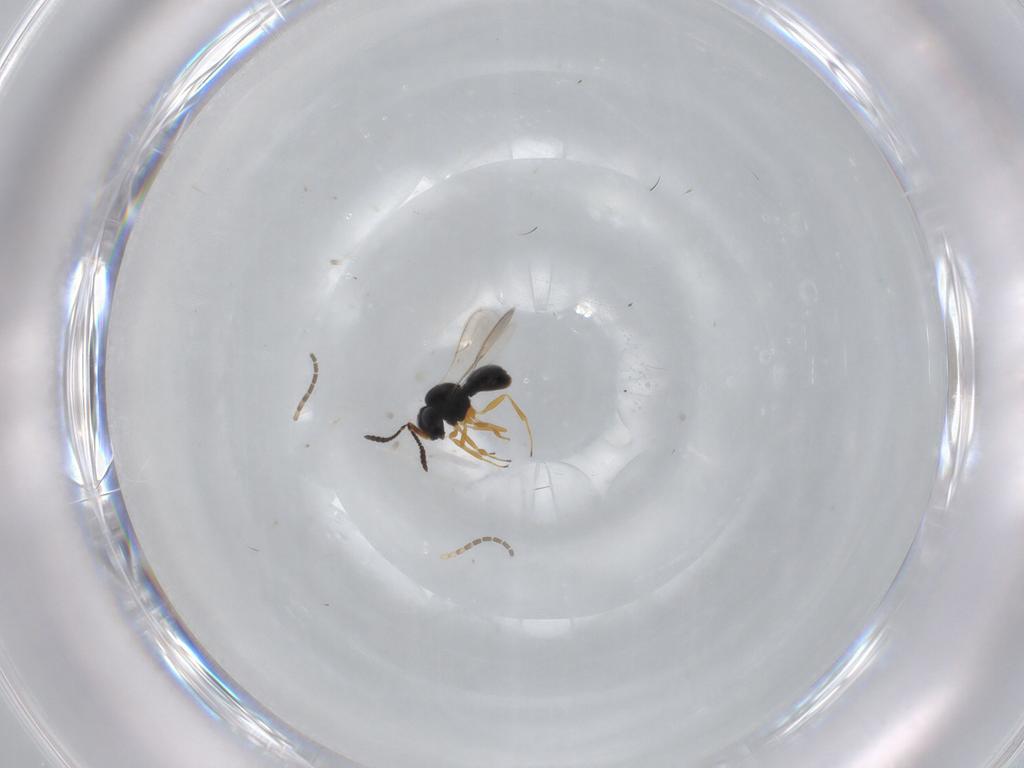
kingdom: Animalia
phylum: Arthropoda
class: Insecta
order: Hymenoptera
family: Scelionidae
